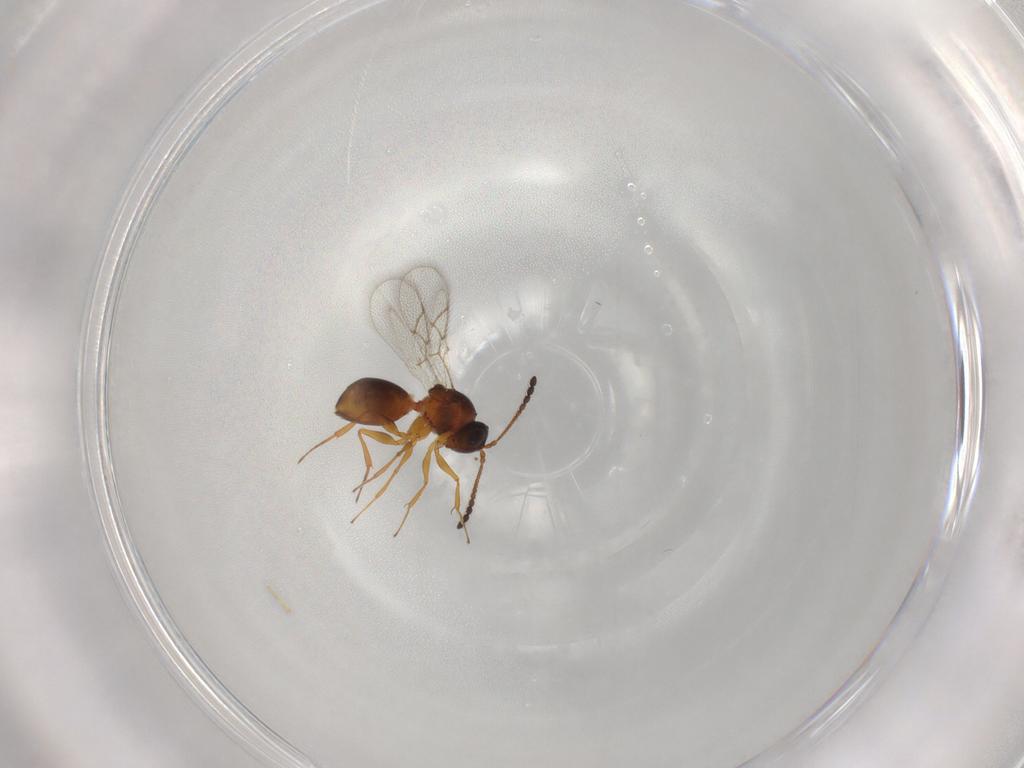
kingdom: Animalia
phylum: Arthropoda
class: Insecta
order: Hymenoptera
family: Figitidae
